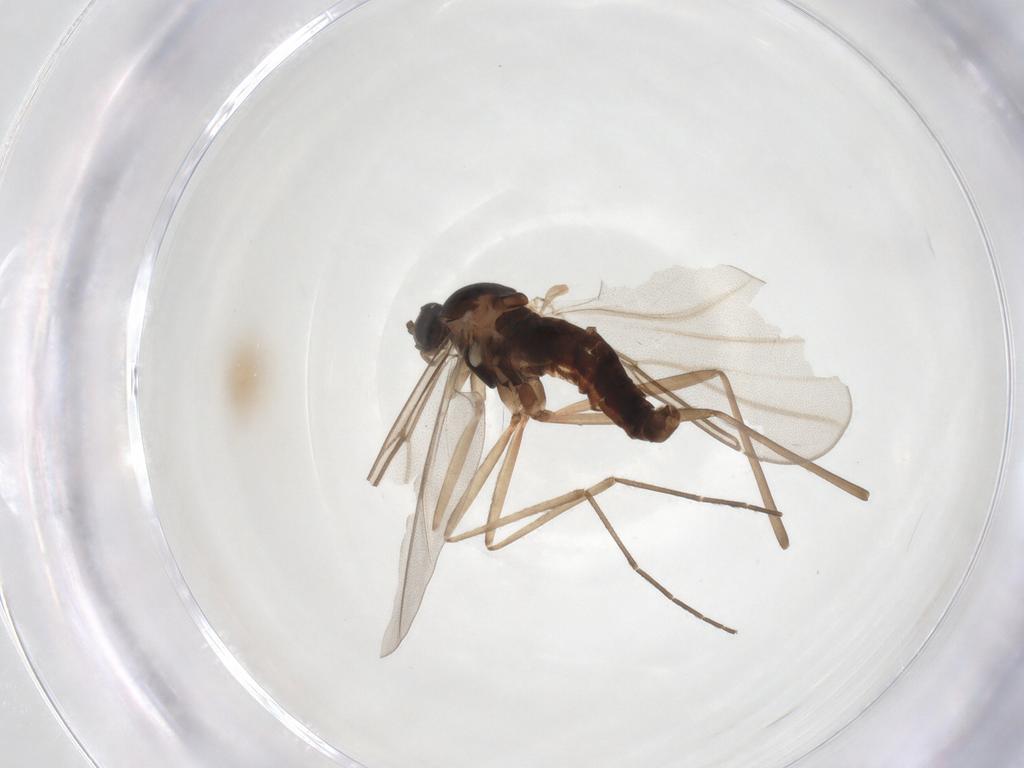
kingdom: Animalia
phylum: Arthropoda
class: Insecta
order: Diptera
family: Cecidomyiidae
